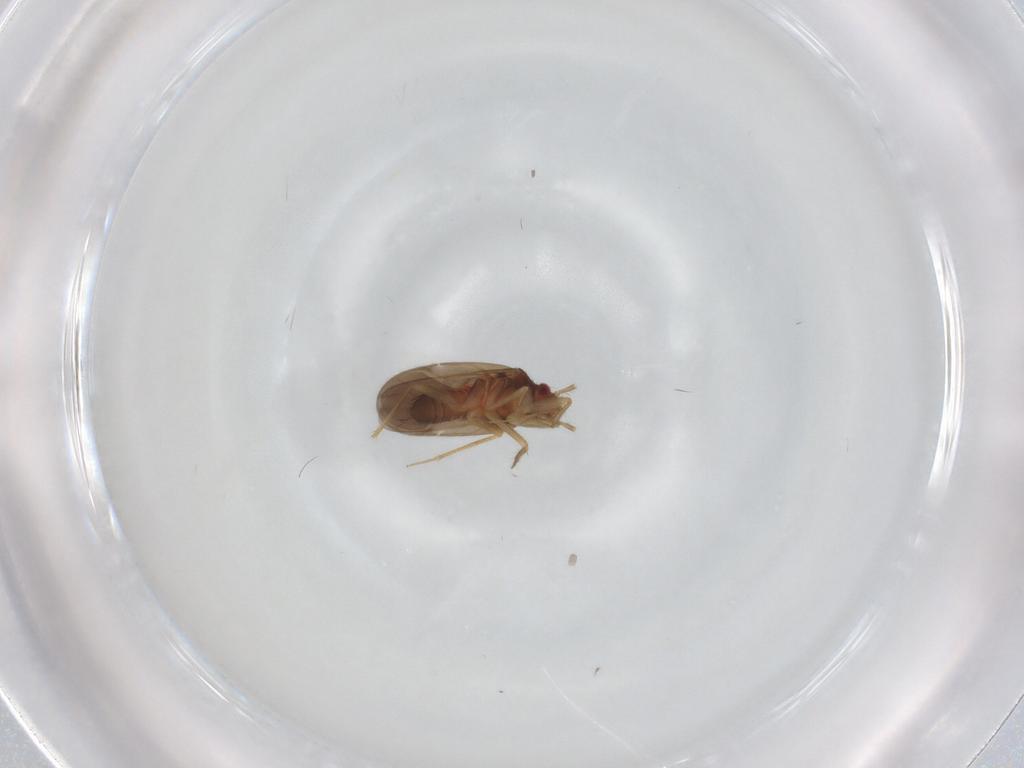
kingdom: Animalia
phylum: Arthropoda
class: Insecta
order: Hemiptera
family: Ceratocombidae
